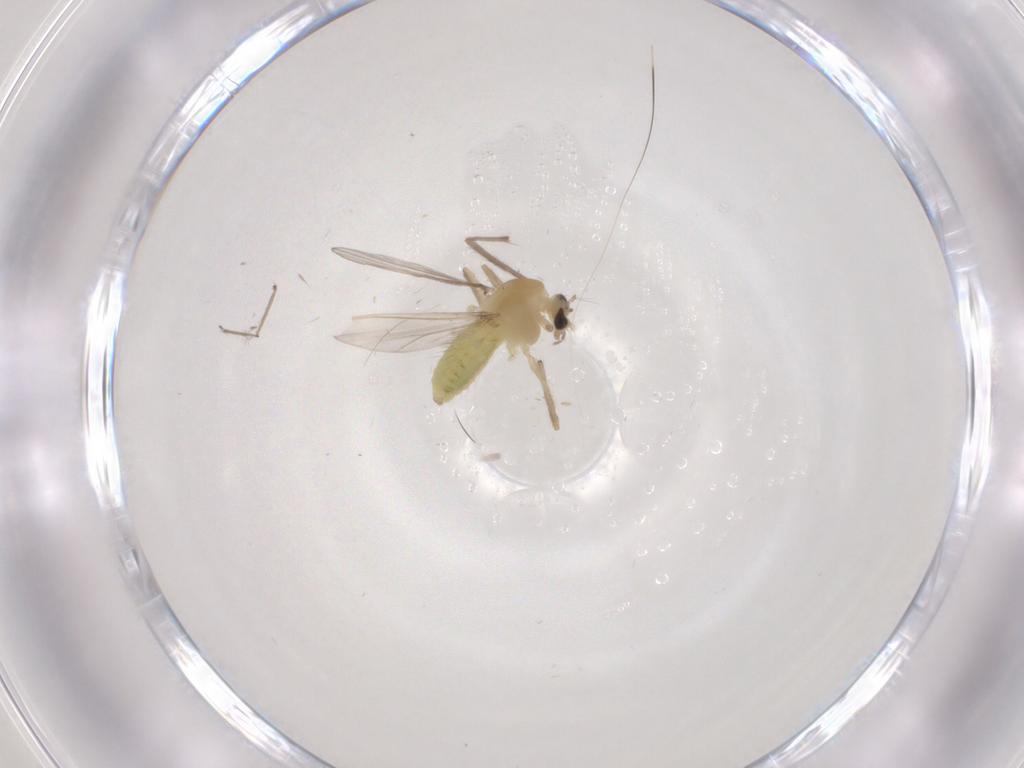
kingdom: Animalia
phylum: Arthropoda
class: Insecta
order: Diptera
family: Chironomidae
